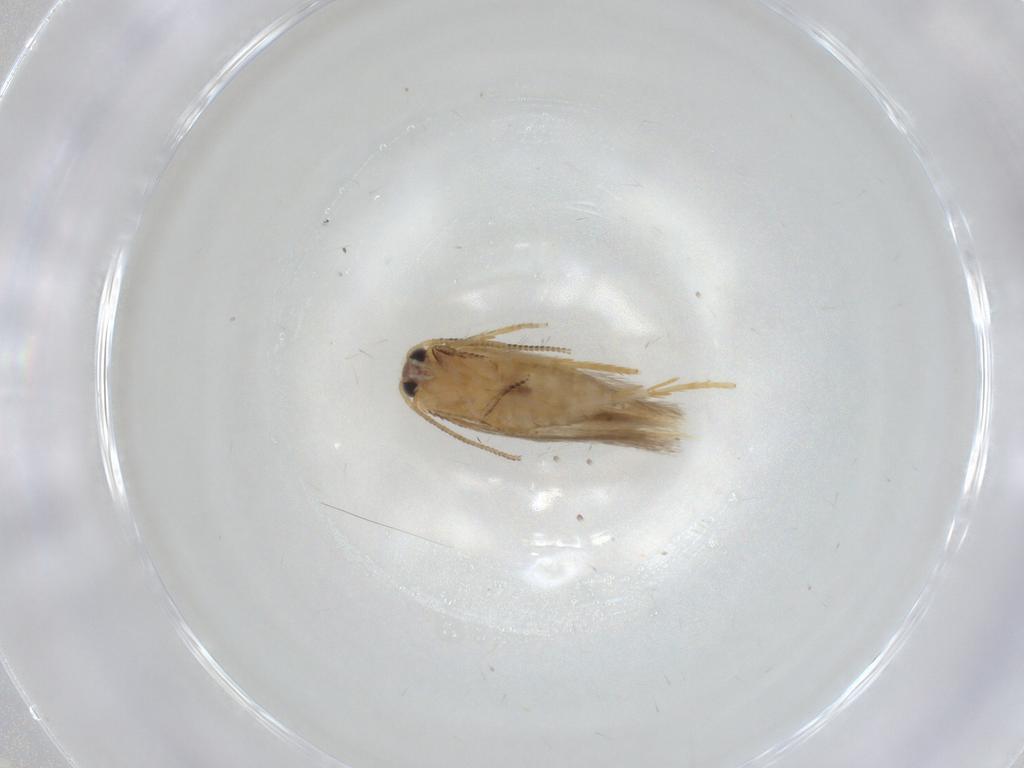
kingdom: Animalia
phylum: Arthropoda
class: Insecta
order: Lepidoptera
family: Nepticulidae
